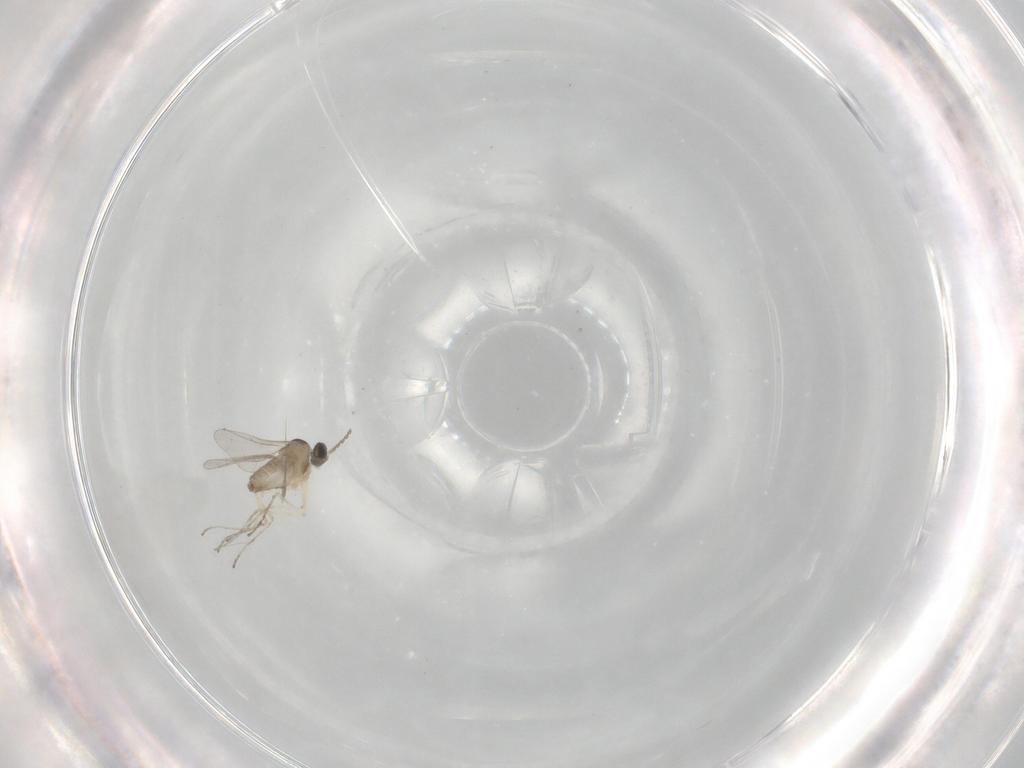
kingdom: Animalia
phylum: Arthropoda
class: Insecta
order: Diptera
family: Cecidomyiidae
